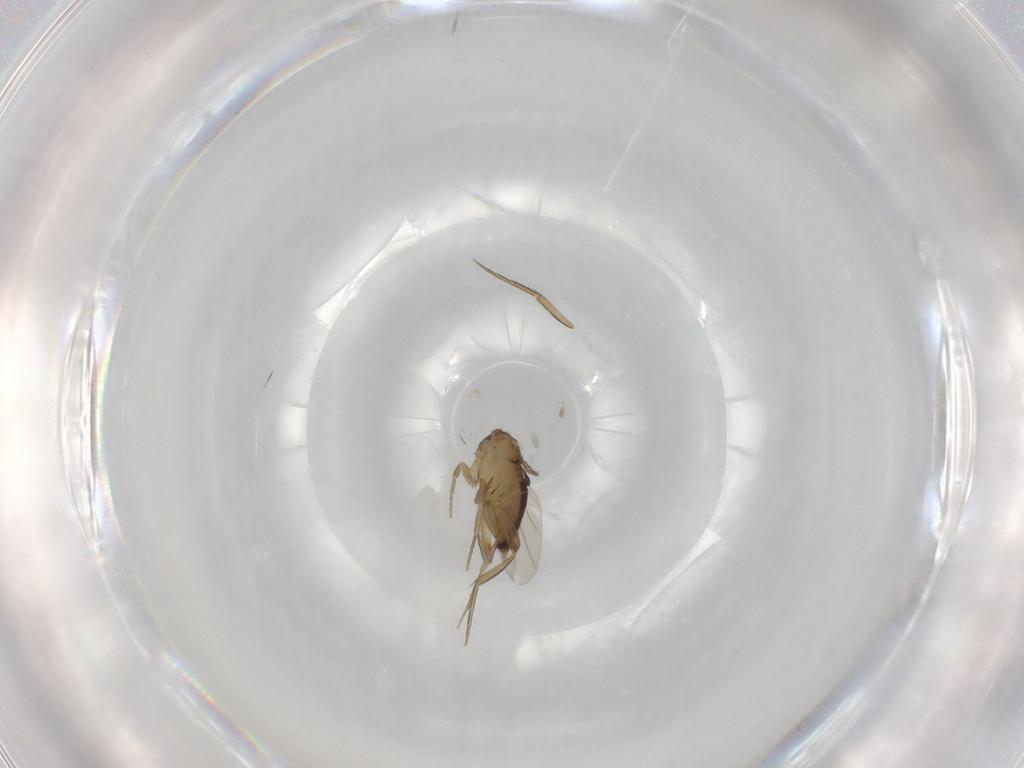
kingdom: Animalia
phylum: Arthropoda
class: Insecta
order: Diptera
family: Phoridae
